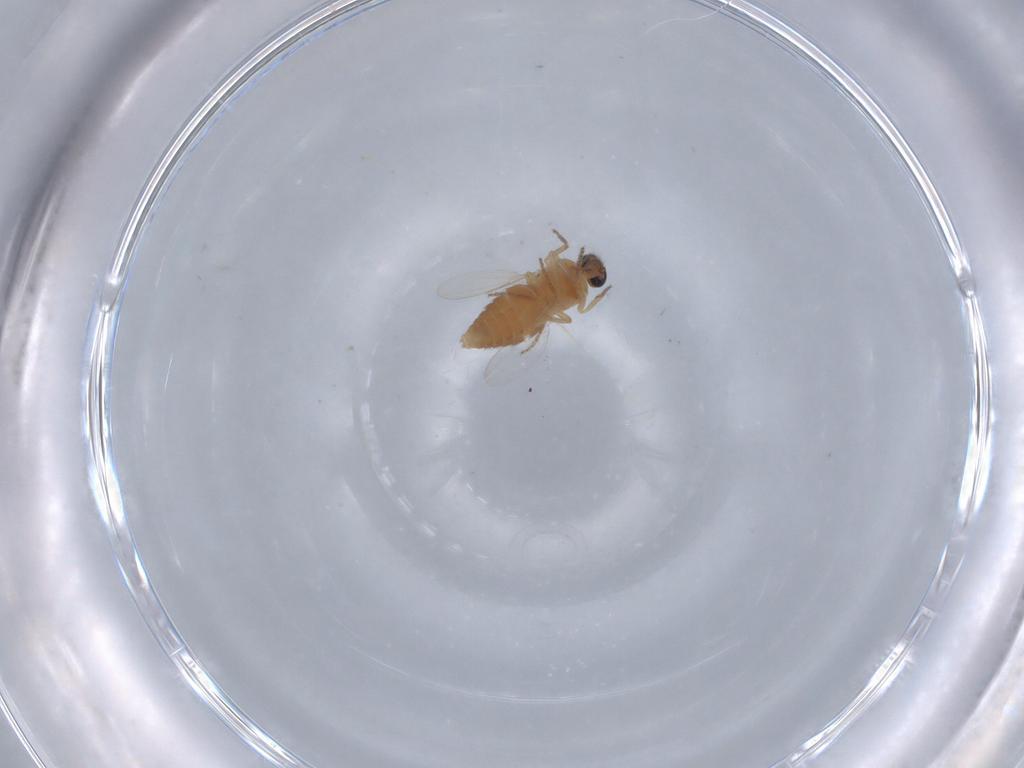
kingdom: Animalia
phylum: Arthropoda
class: Insecta
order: Diptera
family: Ceratopogonidae
